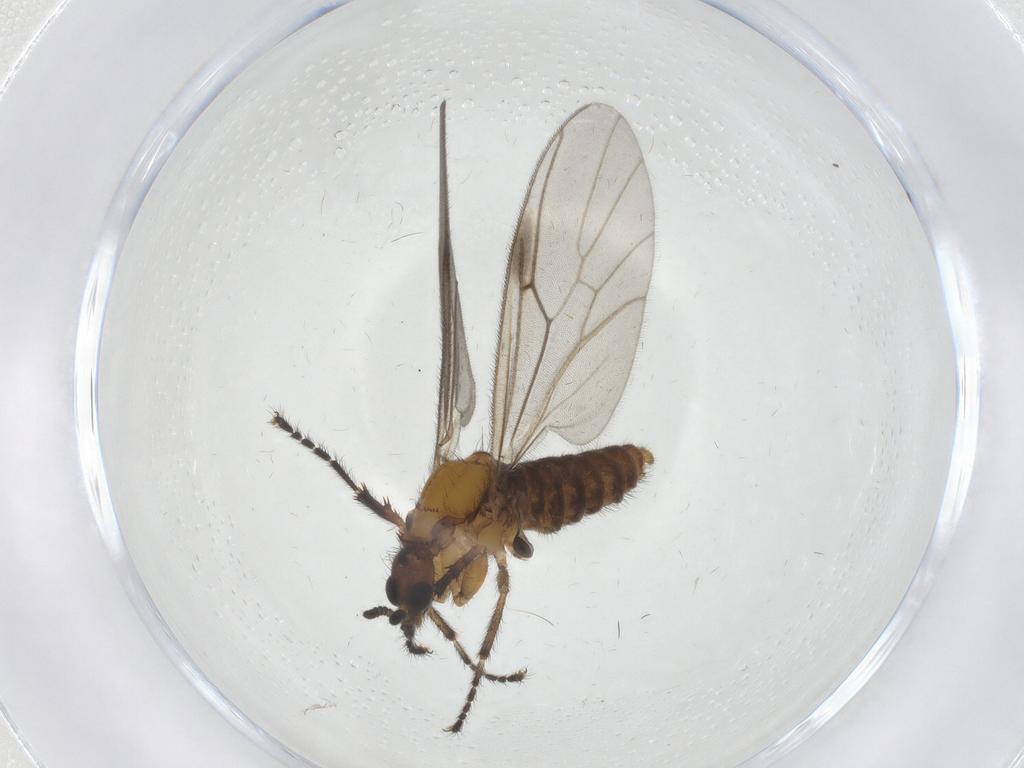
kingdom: Animalia
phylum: Arthropoda
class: Insecta
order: Diptera
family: Bibionidae
